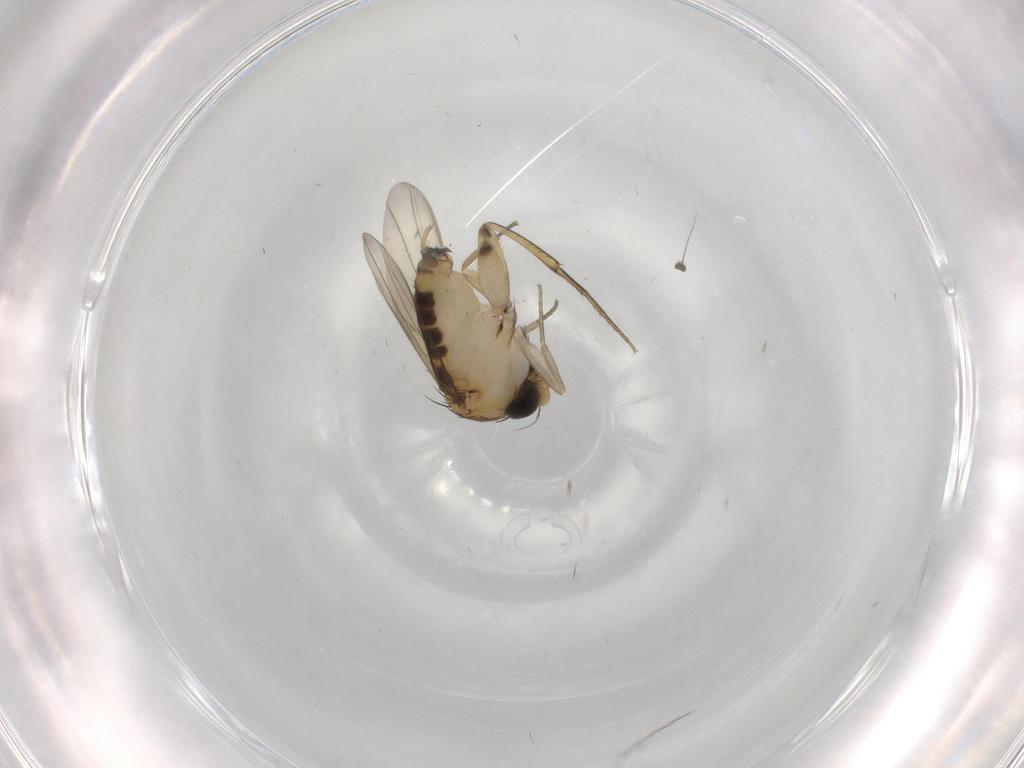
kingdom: Animalia
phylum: Arthropoda
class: Insecta
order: Diptera
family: Phoridae
